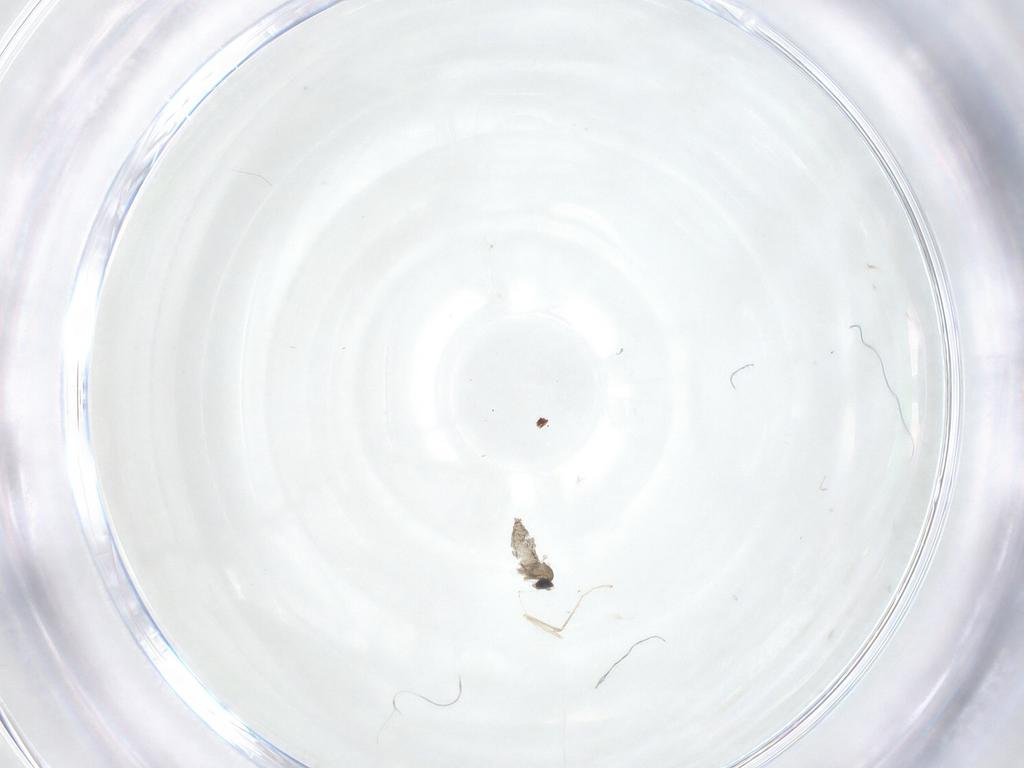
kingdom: Animalia
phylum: Arthropoda
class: Insecta
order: Diptera
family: Cecidomyiidae
